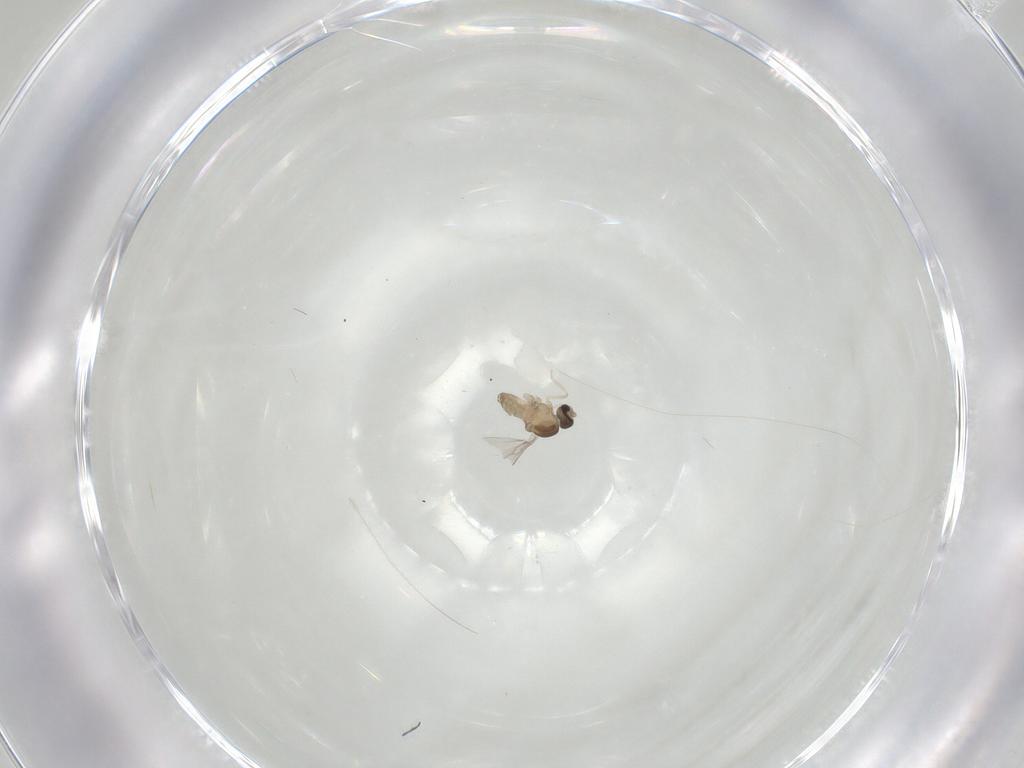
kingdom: Animalia
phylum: Arthropoda
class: Insecta
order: Diptera
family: Cecidomyiidae
